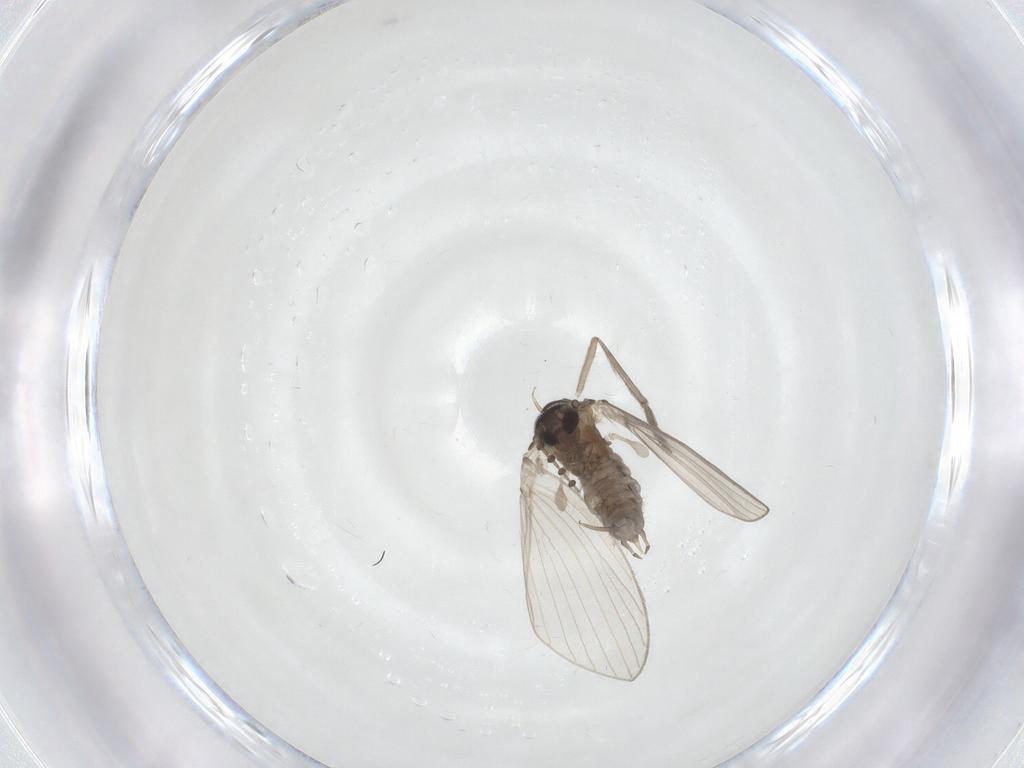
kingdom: Animalia
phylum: Arthropoda
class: Insecta
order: Diptera
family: Psychodidae
